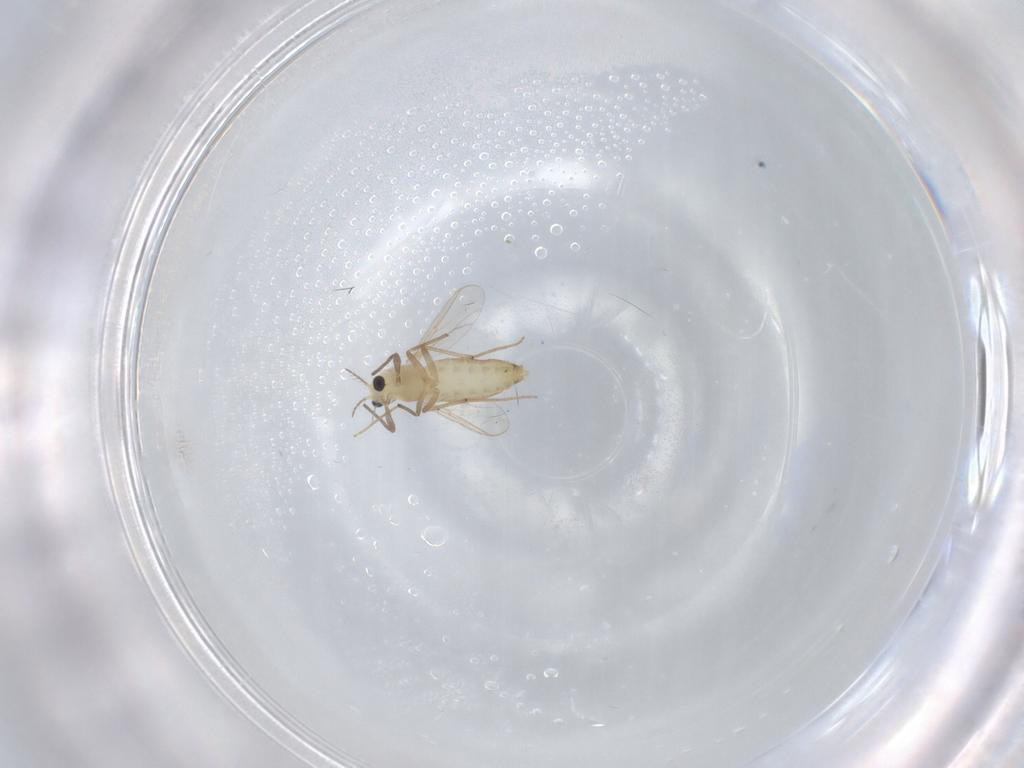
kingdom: Animalia
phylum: Arthropoda
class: Insecta
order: Diptera
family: Chironomidae
